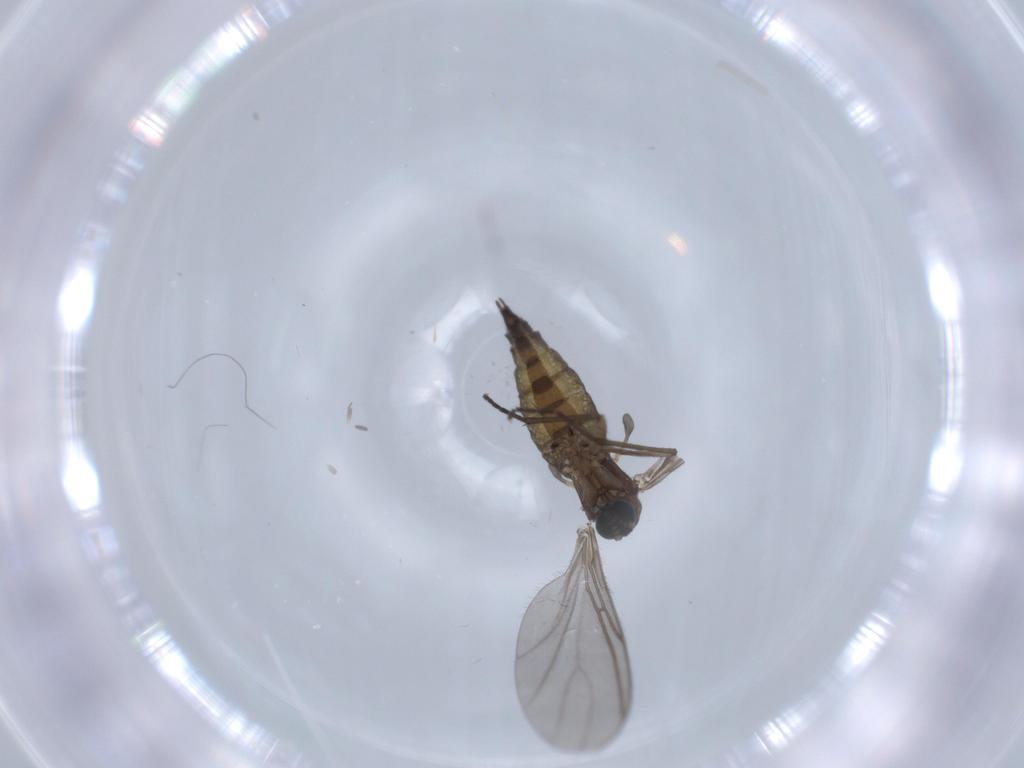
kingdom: Animalia
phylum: Arthropoda
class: Insecta
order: Diptera
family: Sciaridae
